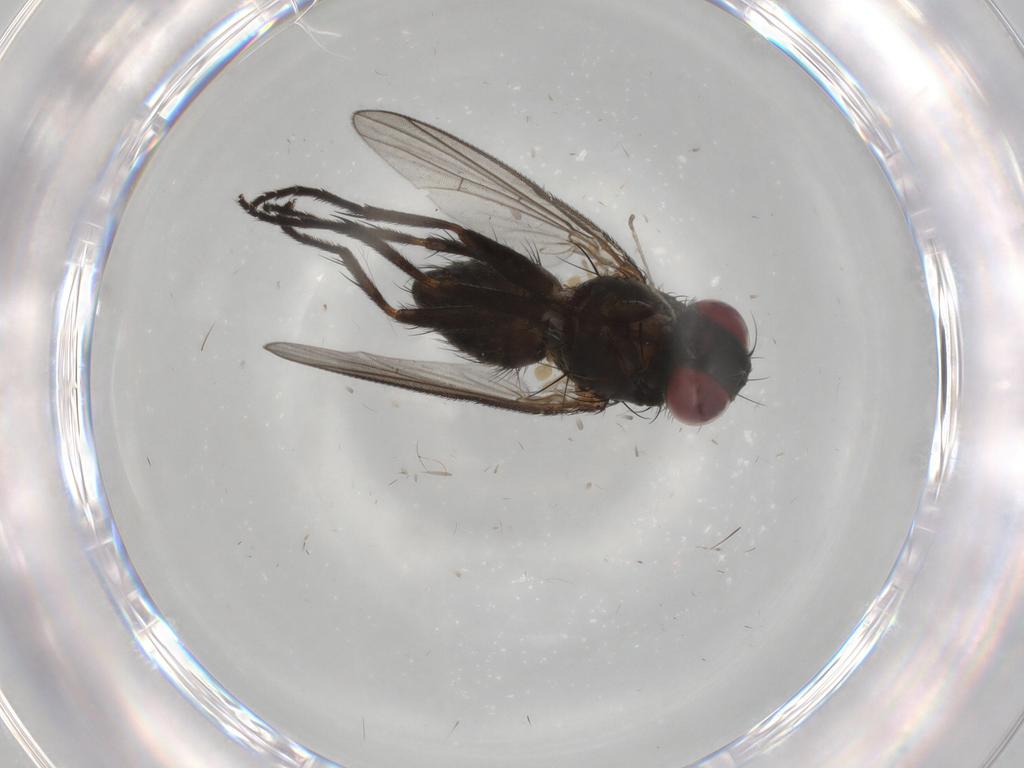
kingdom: Animalia
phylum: Arthropoda
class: Insecta
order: Diptera
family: Muscidae
